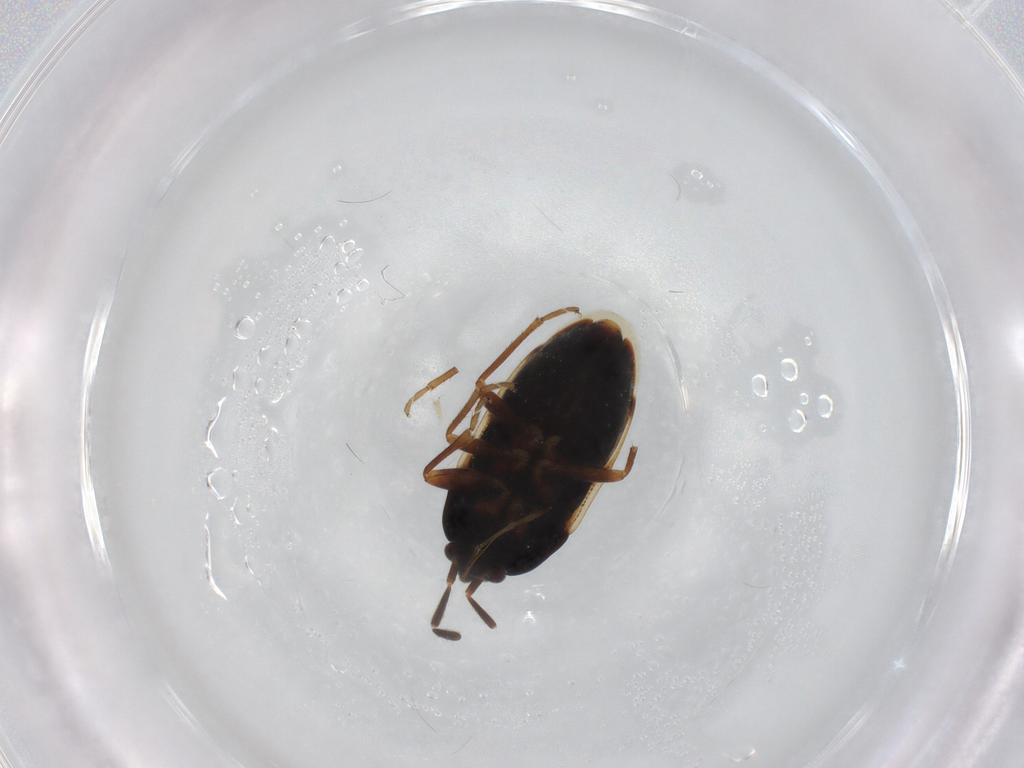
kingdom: Animalia
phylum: Arthropoda
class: Insecta
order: Hemiptera
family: Rhyparochromidae
